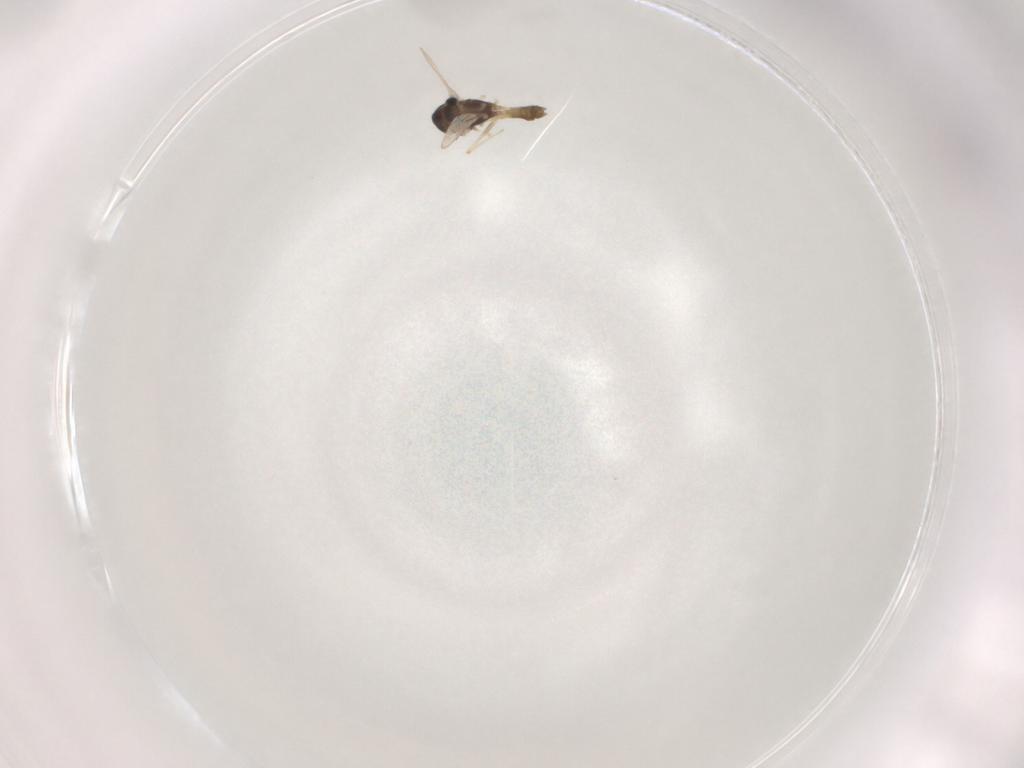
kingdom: Animalia
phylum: Arthropoda
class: Insecta
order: Diptera
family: Chironomidae
